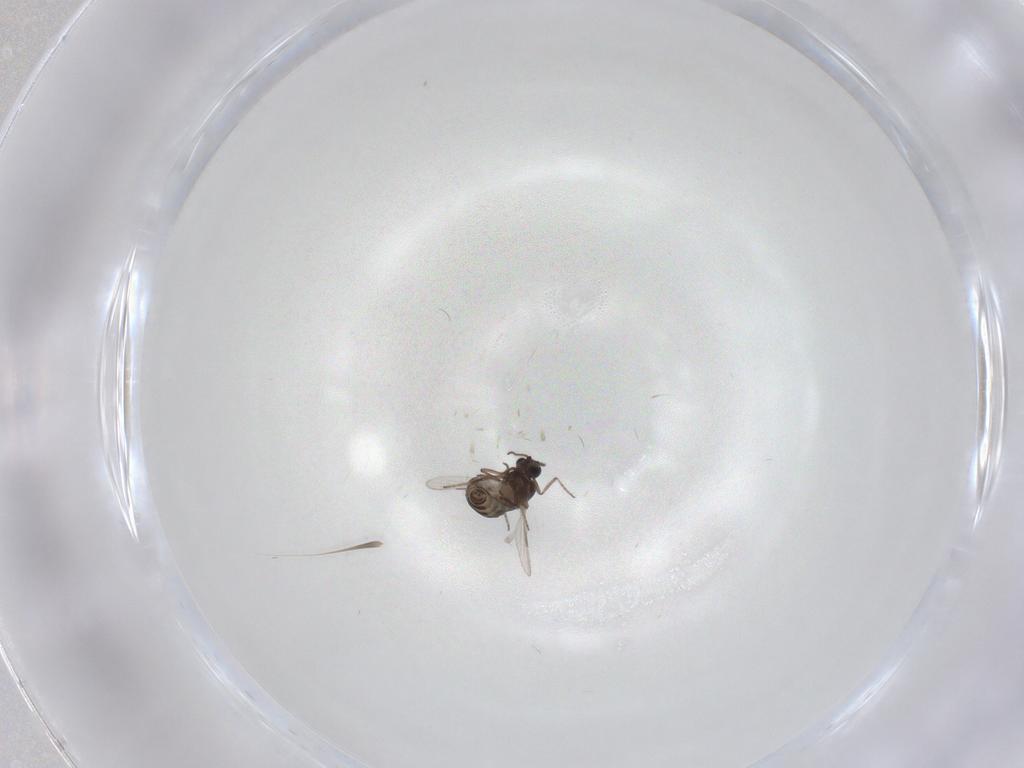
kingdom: Animalia
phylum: Arthropoda
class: Insecta
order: Diptera
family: Ceratopogonidae
